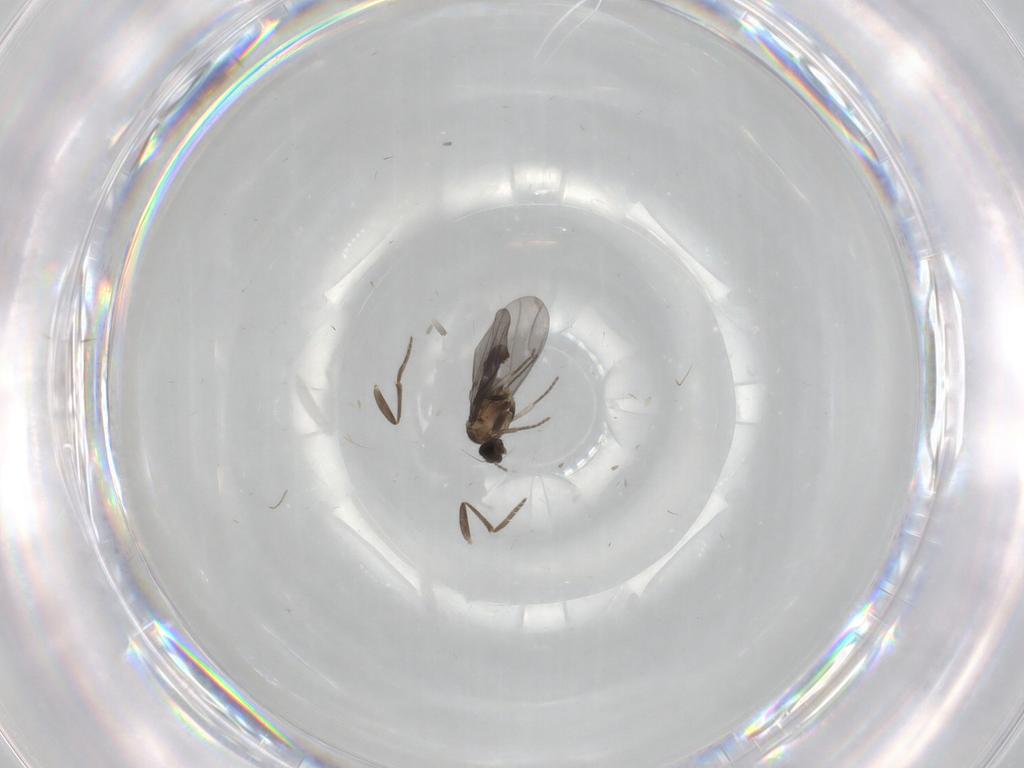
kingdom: Animalia
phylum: Arthropoda
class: Insecta
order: Diptera
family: Phoridae
